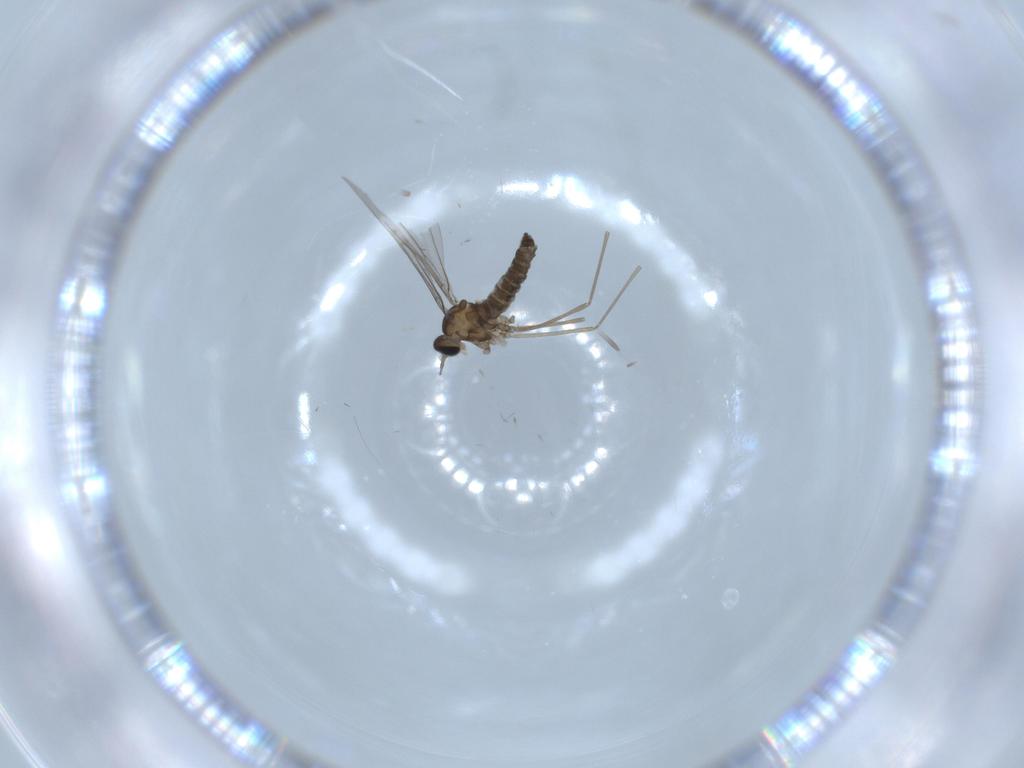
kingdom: Animalia
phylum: Arthropoda
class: Insecta
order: Diptera
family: Cecidomyiidae
